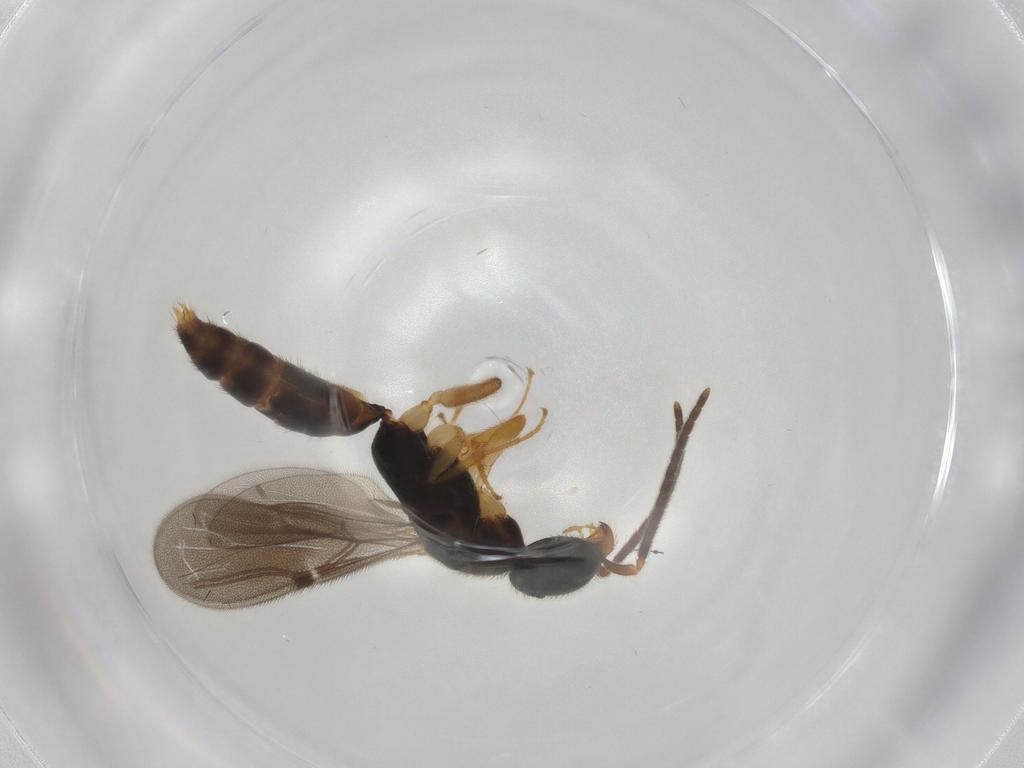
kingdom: Animalia
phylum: Arthropoda
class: Insecta
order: Hymenoptera
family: Bethylidae
